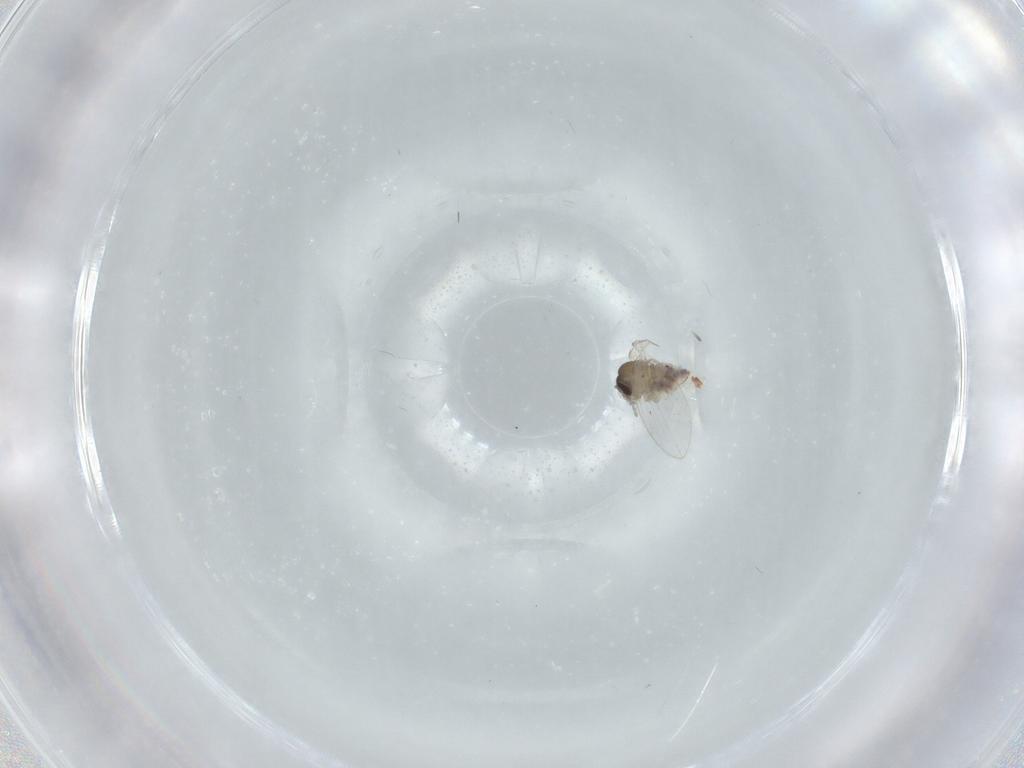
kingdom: Animalia
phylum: Arthropoda
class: Insecta
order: Diptera
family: Psychodidae
